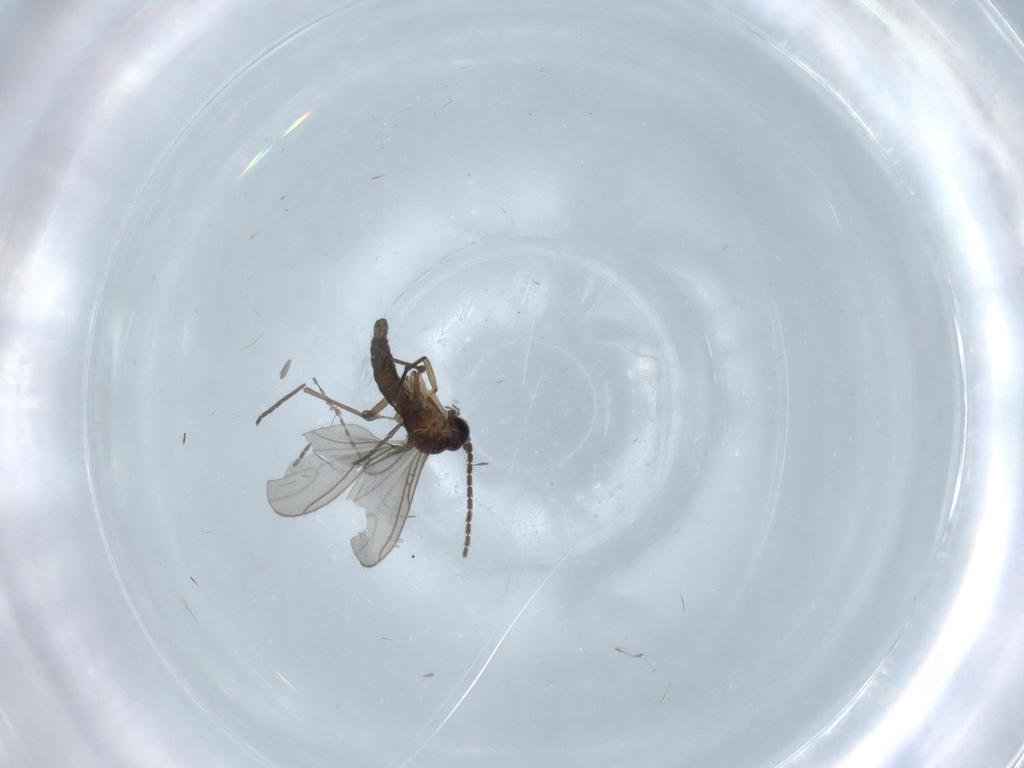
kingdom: Animalia
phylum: Arthropoda
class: Insecta
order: Diptera
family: Sciaridae
